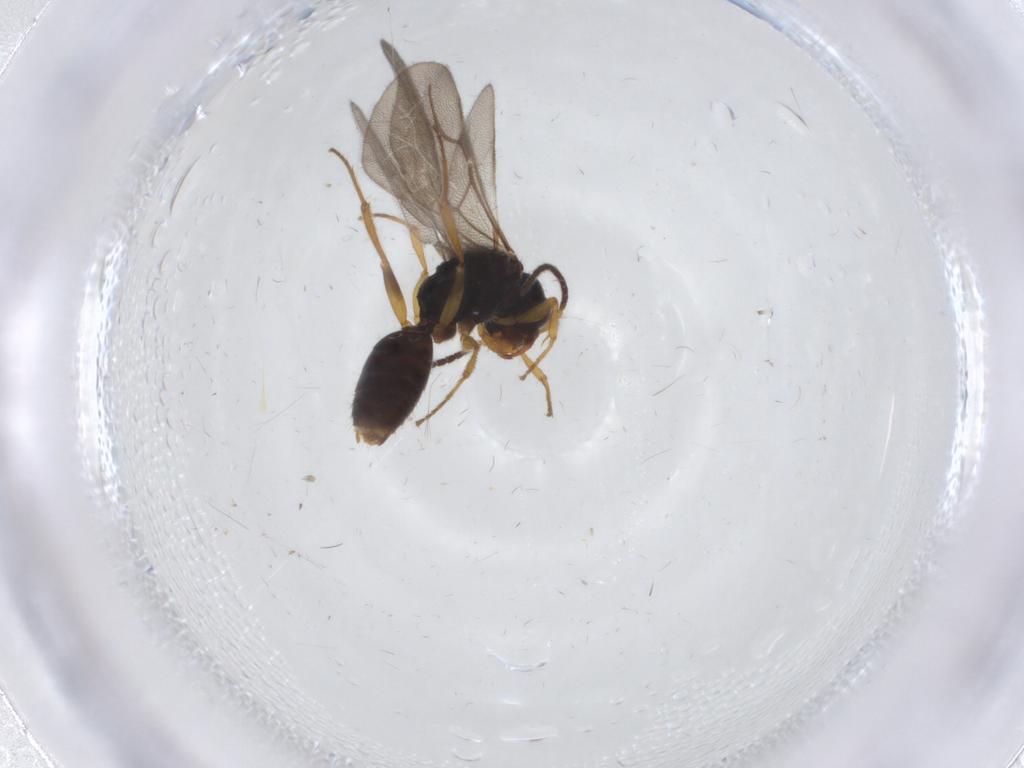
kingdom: Animalia
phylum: Arthropoda
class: Insecta
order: Hymenoptera
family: Bethylidae
